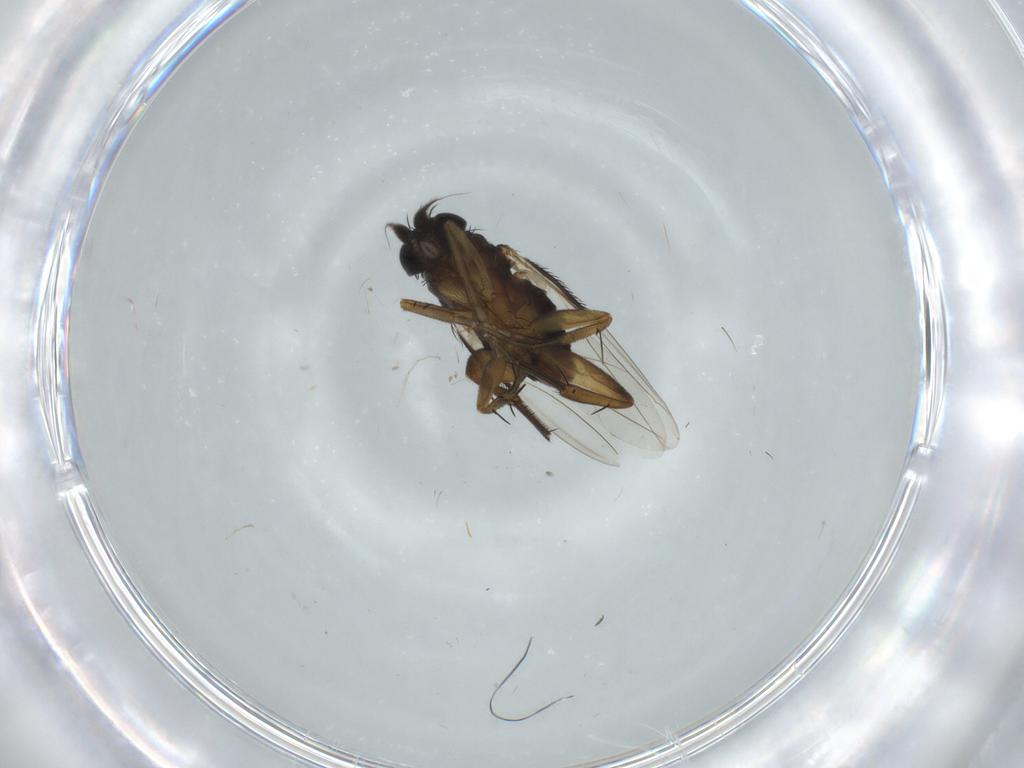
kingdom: Animalia
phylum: Arthropoda
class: Insecta
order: Diptera
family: Phoridae
